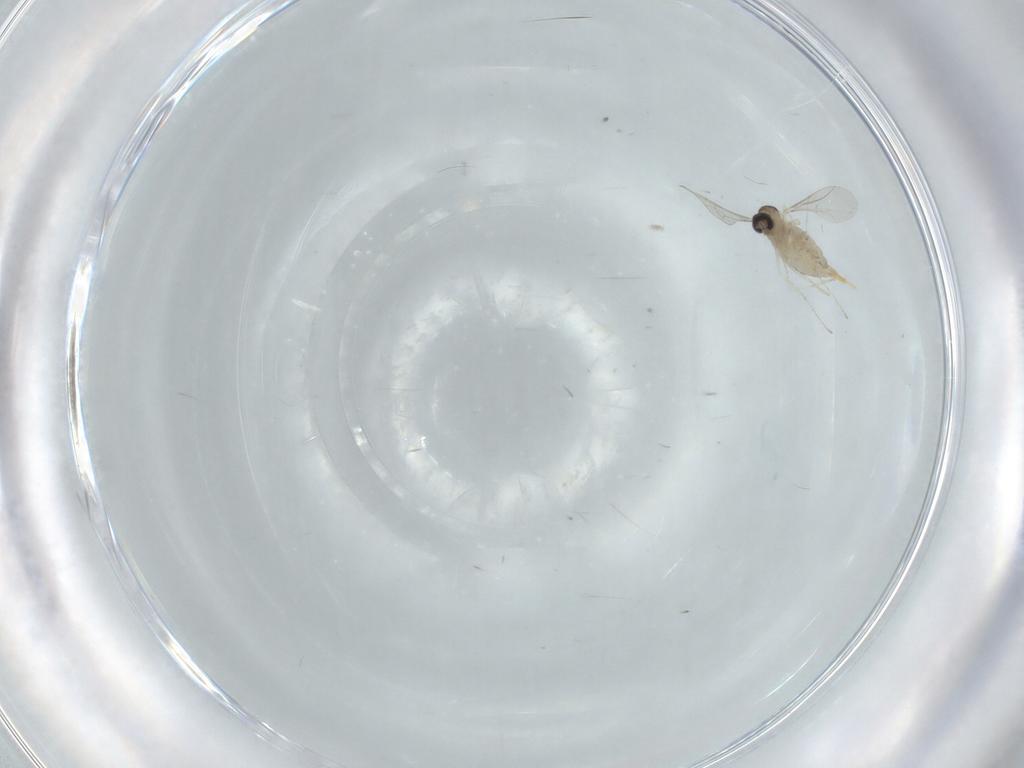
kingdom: Animalia
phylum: Arthropoda
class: Insecta
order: Diptera
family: Cecidomyiidae
